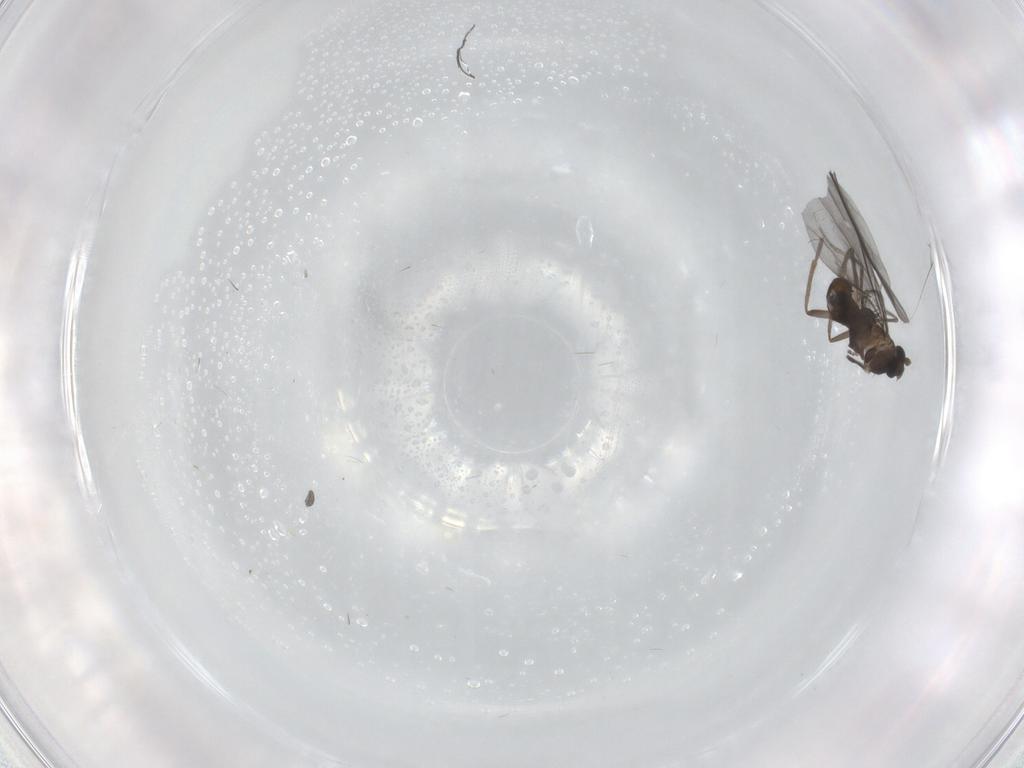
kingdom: Animalia
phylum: Arthropoda
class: Insecta
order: Diptera
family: Phoridae
